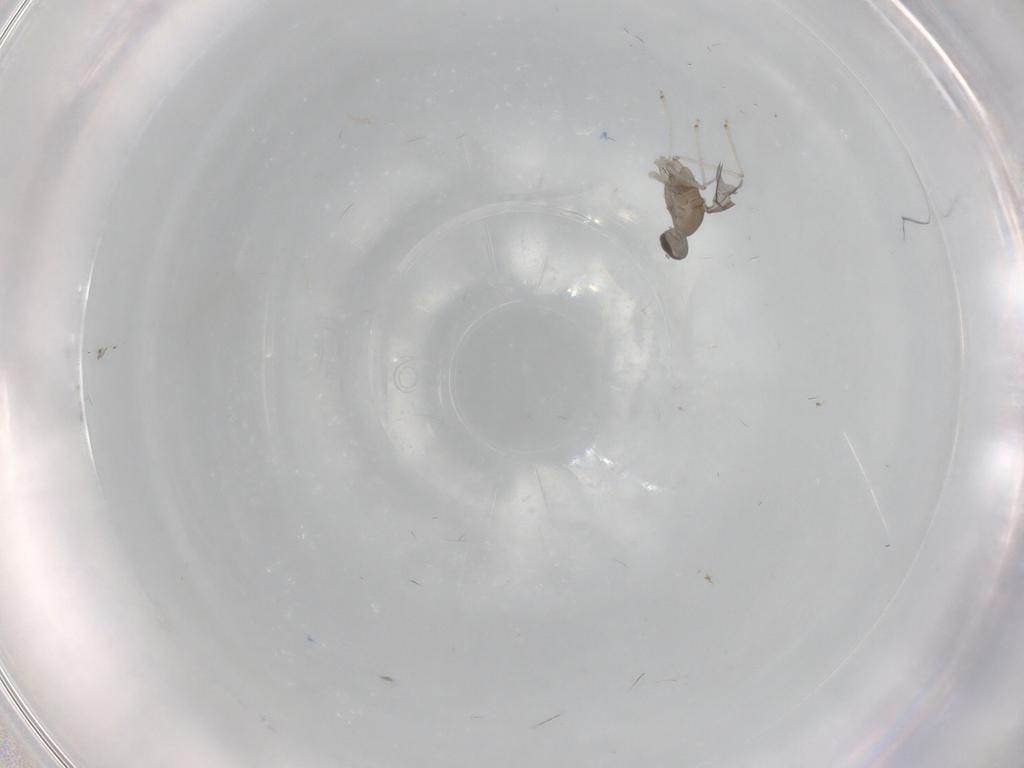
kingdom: Animalia
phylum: Arthropoda
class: Insecta
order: Diptera
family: Cecidomyiidae
